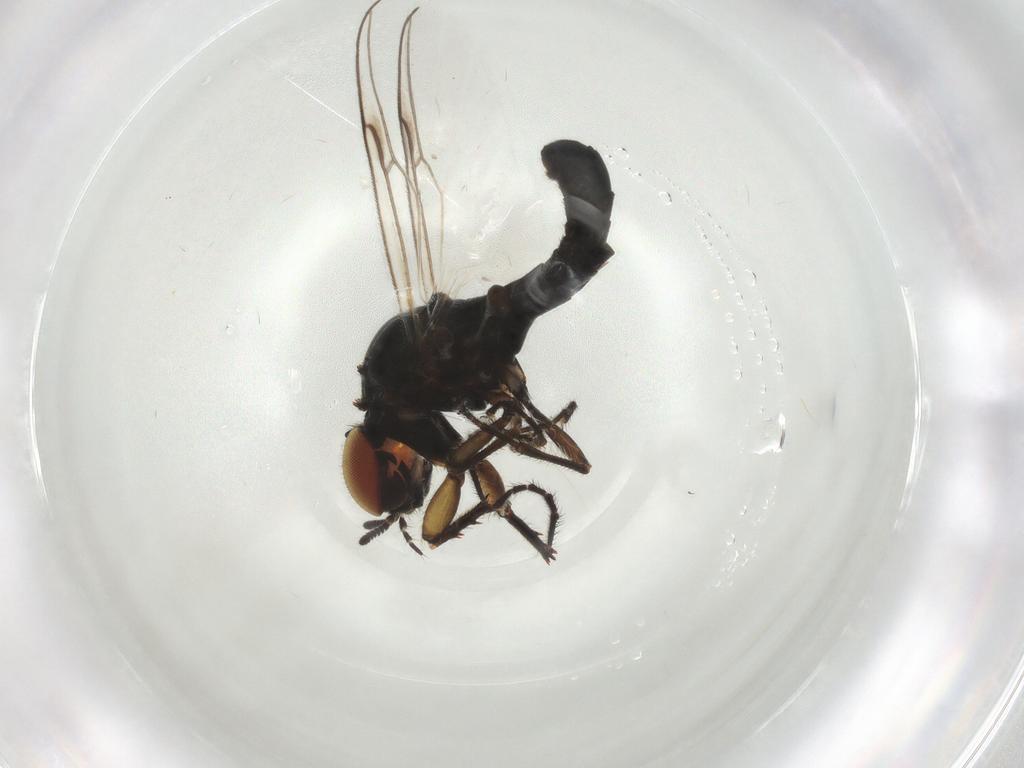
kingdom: Animalia
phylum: Arthropoda
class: Insecta
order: Diptera
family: Bibionidae
